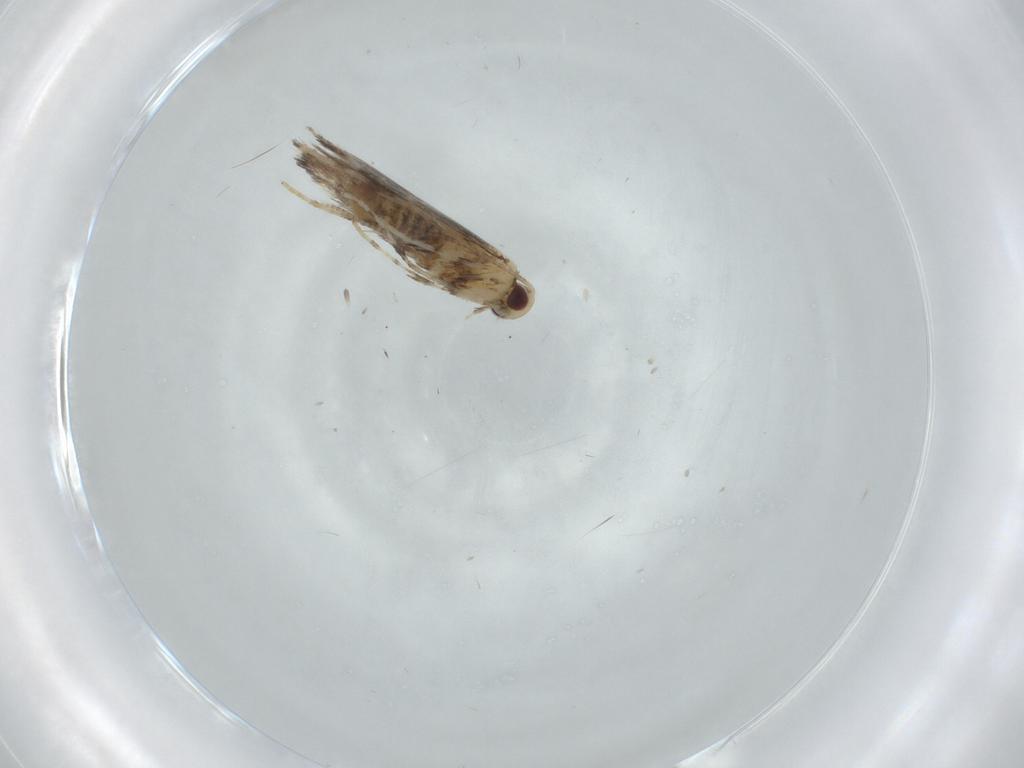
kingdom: Animalia
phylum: Arthropoda
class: Insecta
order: Lepidoptera
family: Gracillariidae
